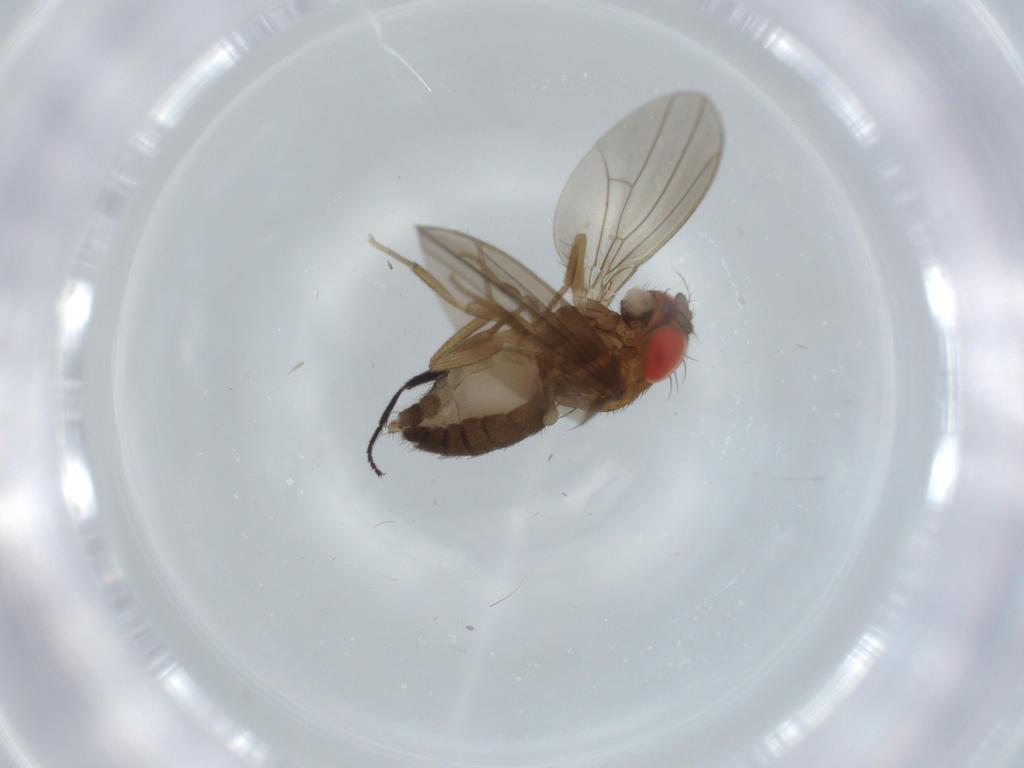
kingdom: Animalia
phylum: Arthropoda
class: Insecta
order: Diptera
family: Drosophilidae
